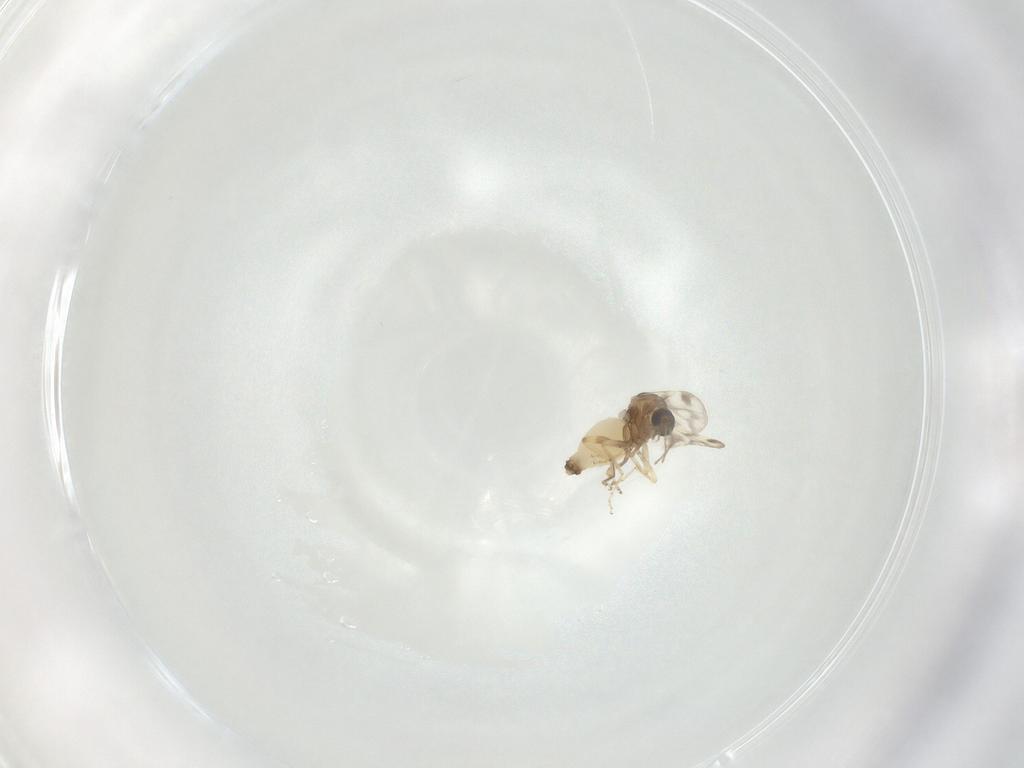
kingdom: Animalia
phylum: Arthropoda
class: Insecta
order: Diptera
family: Ceratopogonidae
